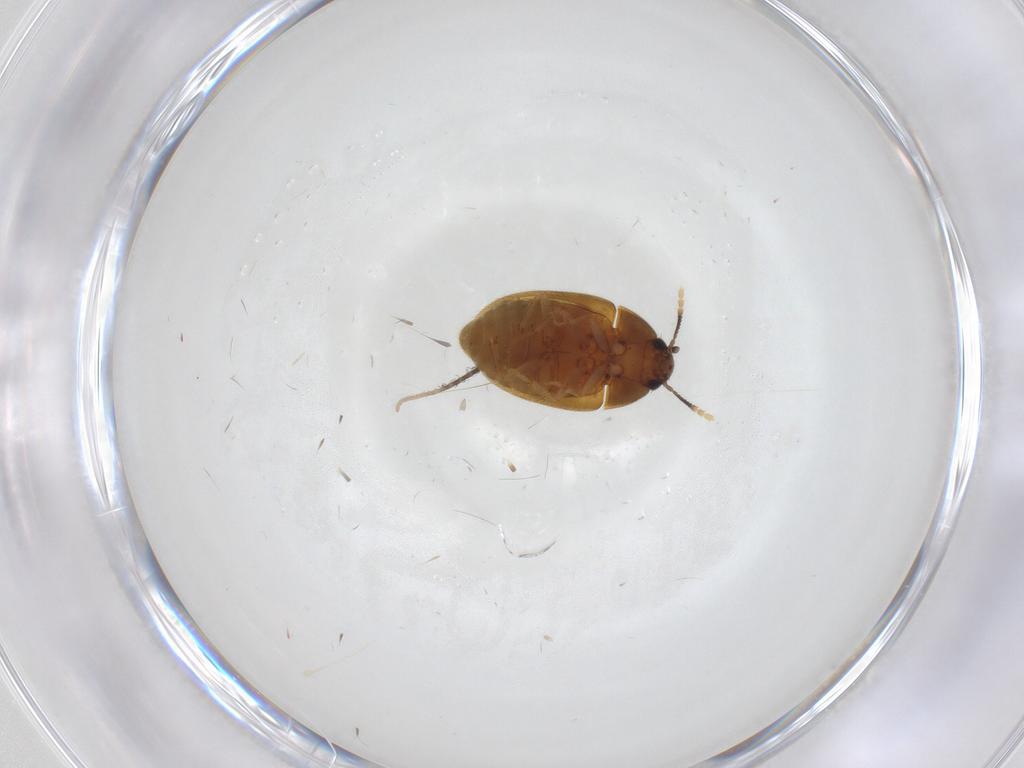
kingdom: Animalia
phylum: Arthropoda
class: Insecta
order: Coleoptera
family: Mycetophagidae
